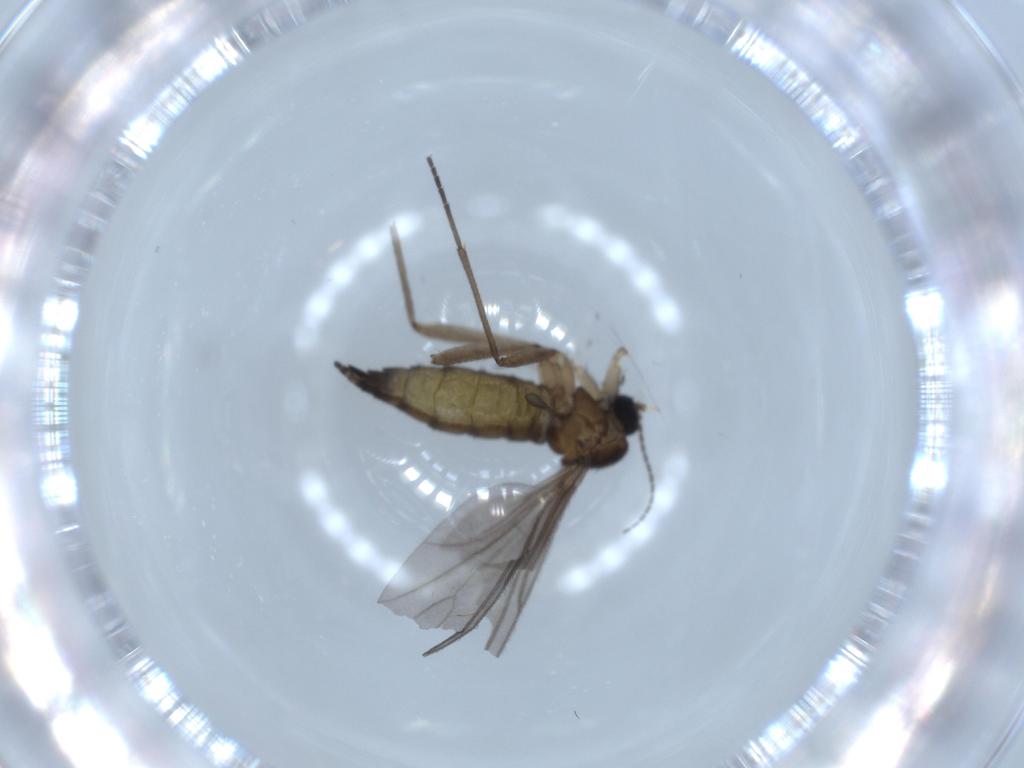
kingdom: Animalia
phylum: Arthropoda
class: Insecta
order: Diptera
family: Sciaridae
